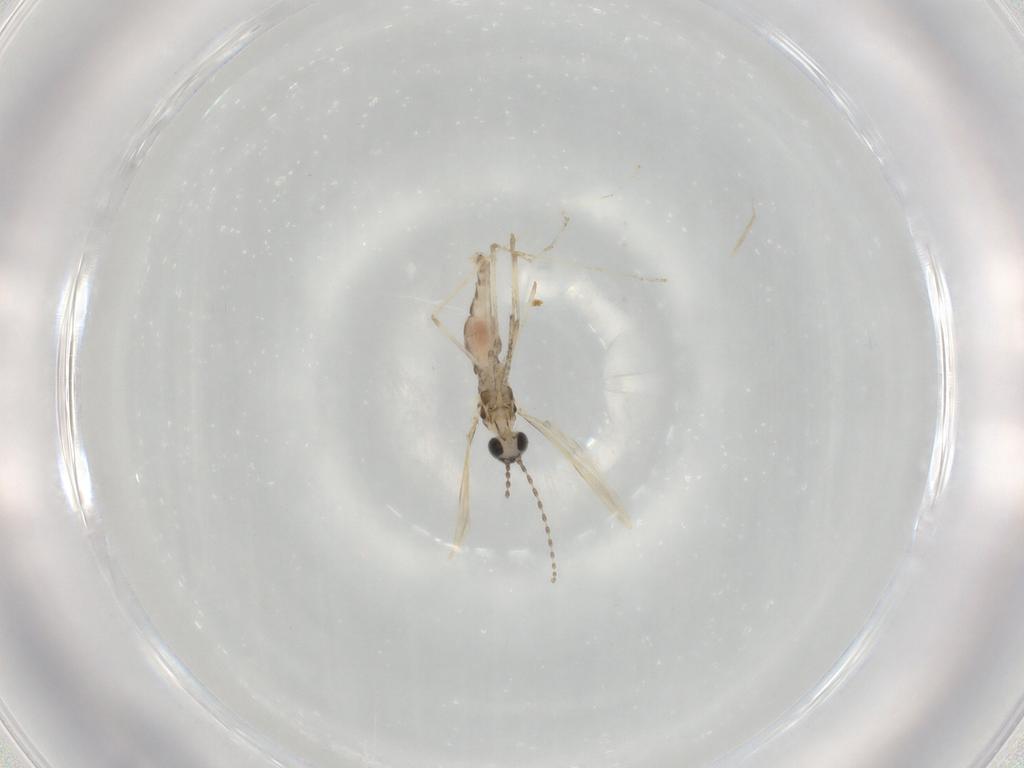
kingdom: Animalia
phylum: Arthropoda
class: Insecta
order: Diptera
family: Cecidomyiidae
